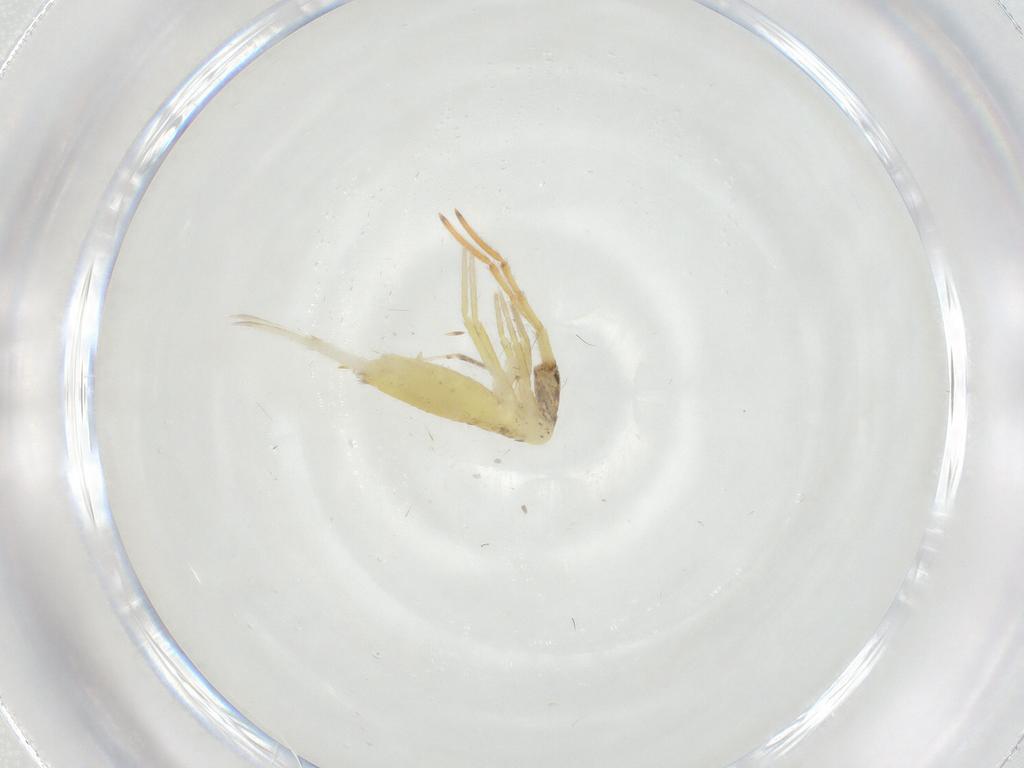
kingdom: Animalia
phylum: Arthropoda
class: Collembola
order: Entomobryomorpha
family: Entomobryidae
